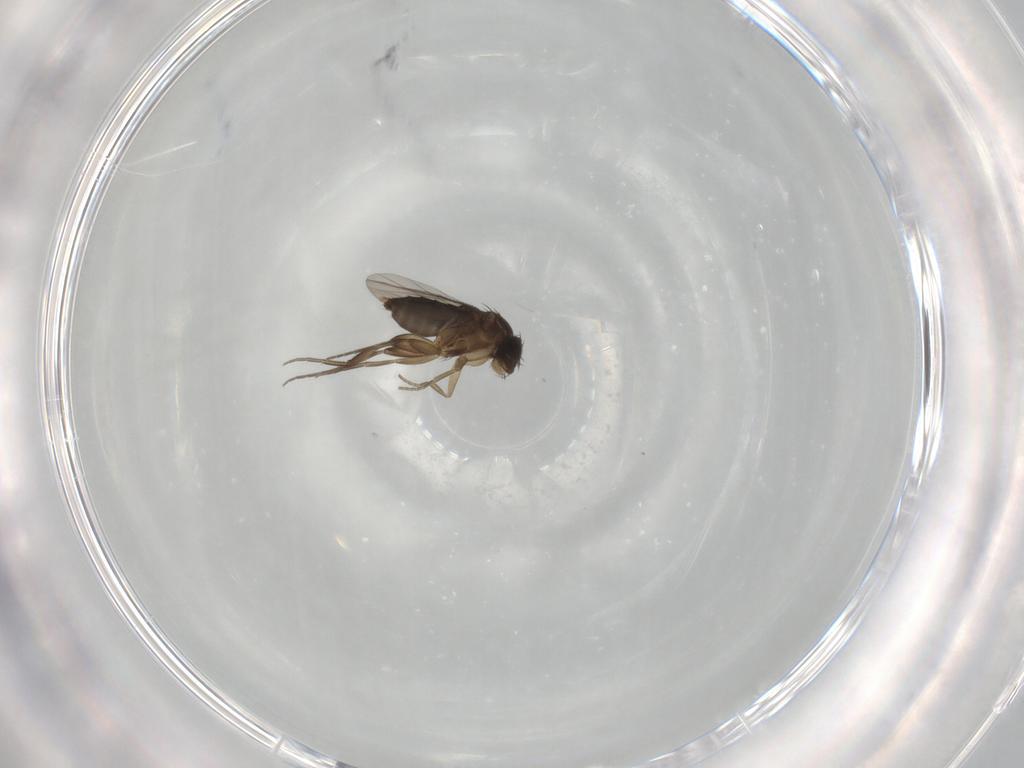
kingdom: Animalia
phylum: Arthropoda
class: Insecta
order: Diptera
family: Phoridae
